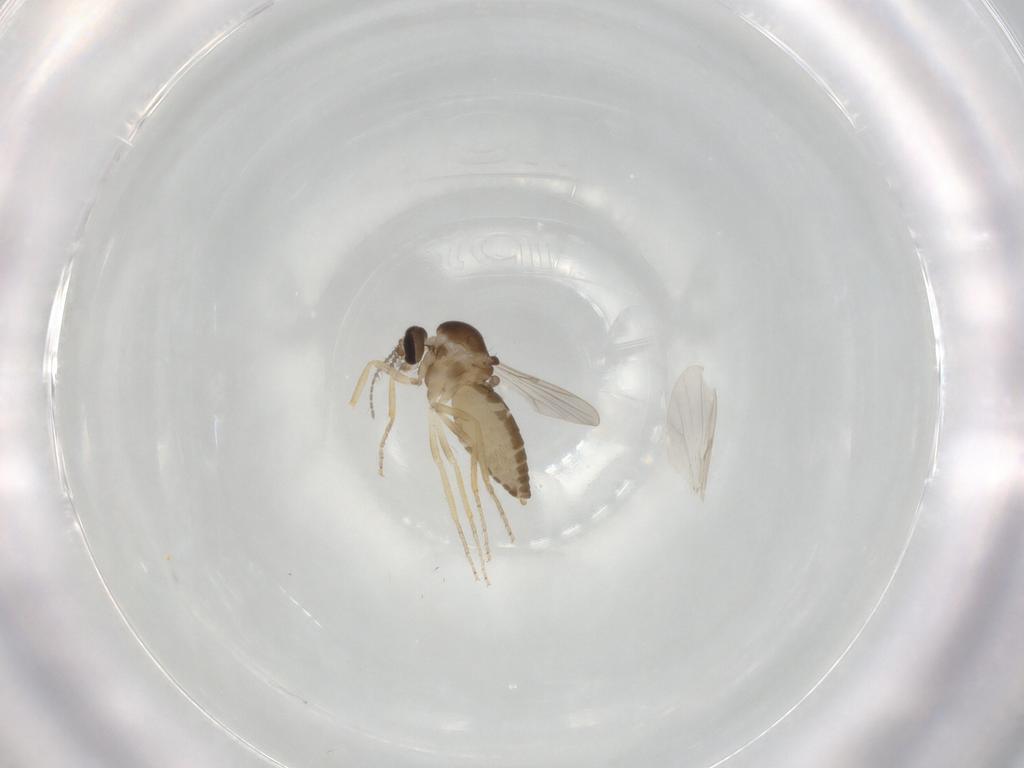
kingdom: Animalia
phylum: Arthropoda
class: Insecta
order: Diptera
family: Ceratopogonidae
